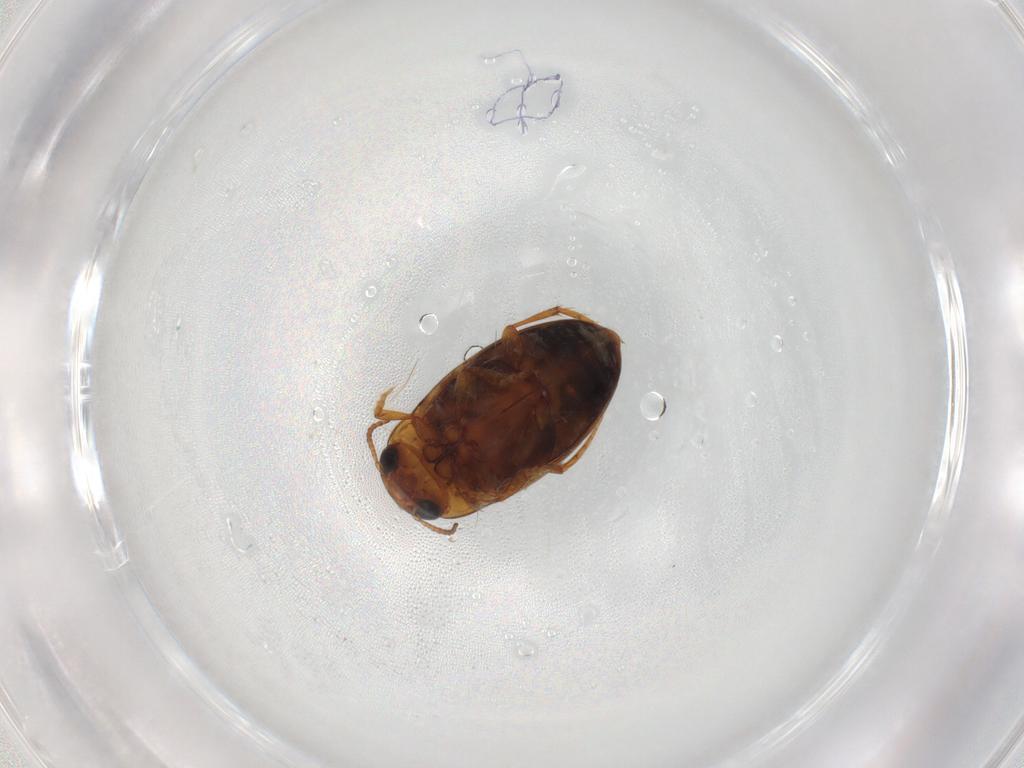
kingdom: Animalia
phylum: Arthropoda
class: Insecta
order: Coleoptera
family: Dytiscidae
